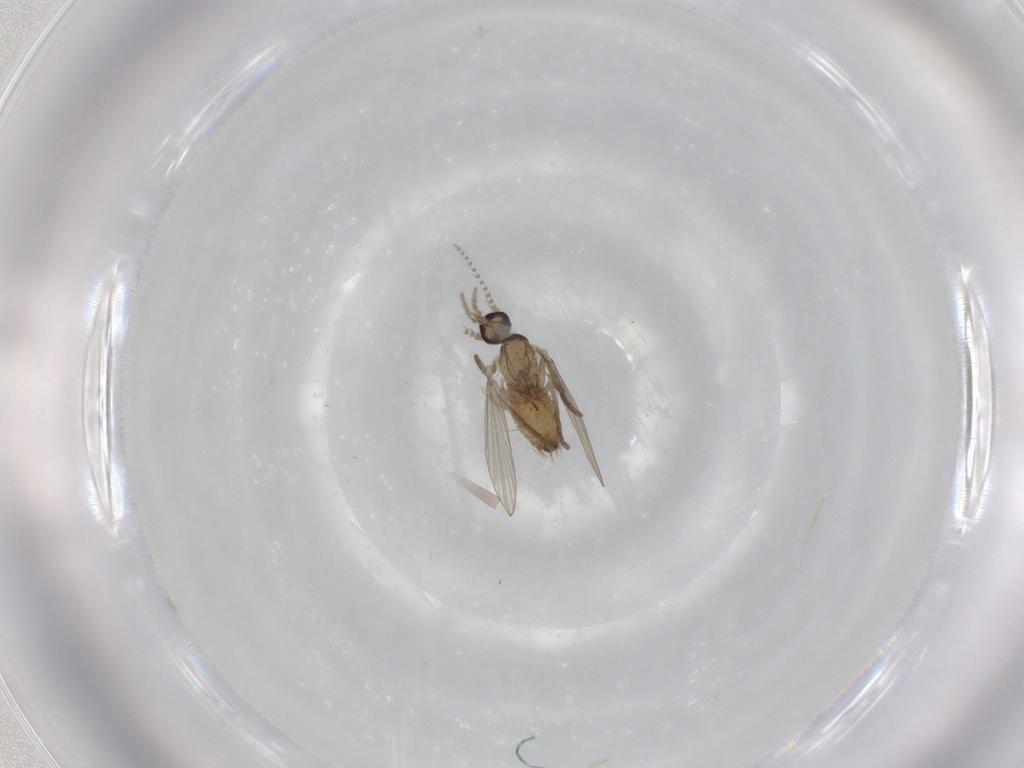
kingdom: Animalia
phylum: Arthropoda
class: Insecta
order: Diptera
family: Psychodidae
